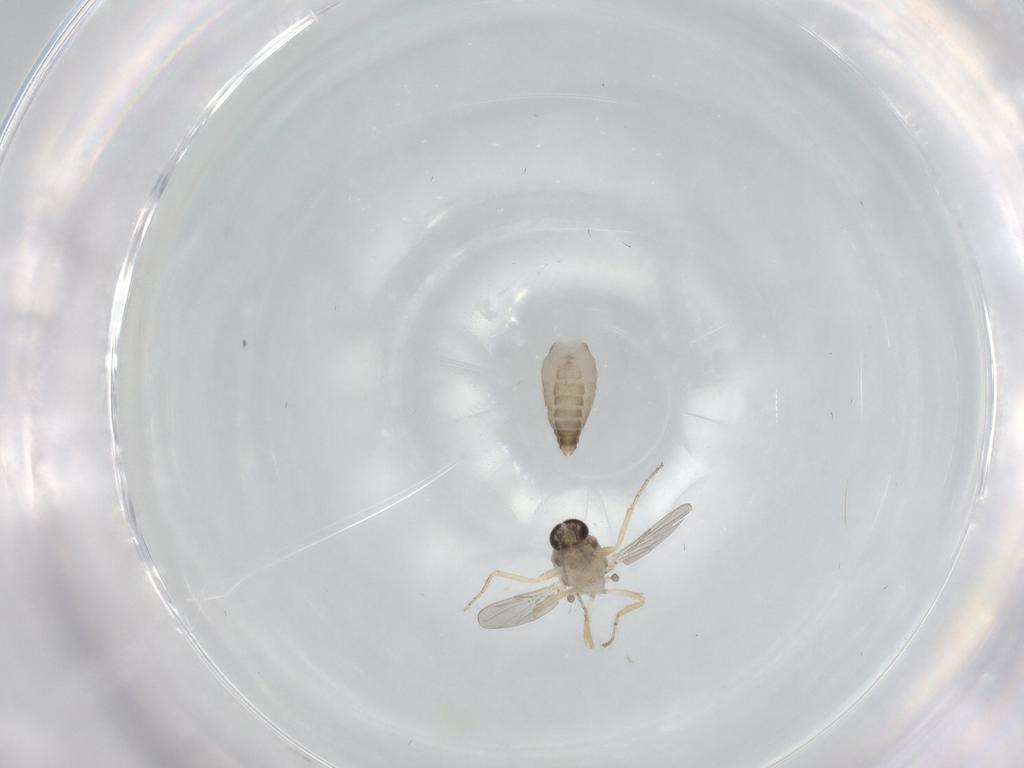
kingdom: Animalia
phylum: Arthropoda
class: Insecta
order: Diptera
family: Ceratopogonidae
